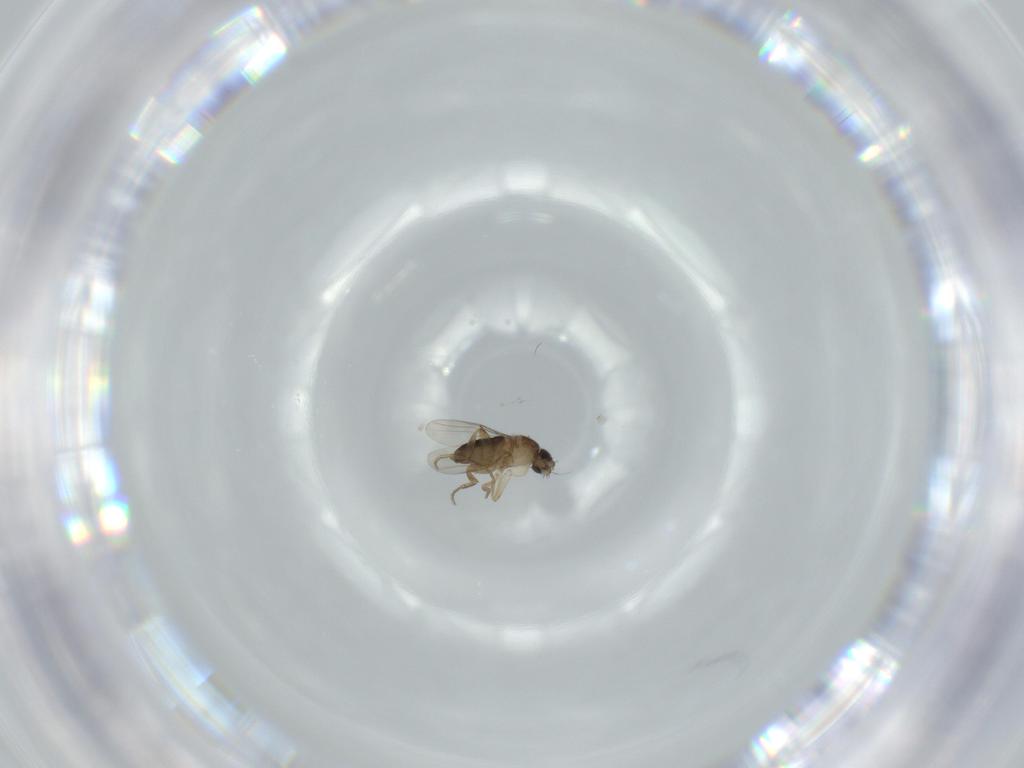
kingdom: Animalia
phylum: Arthropoda
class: Insecta
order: Diptera
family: Phoridae
